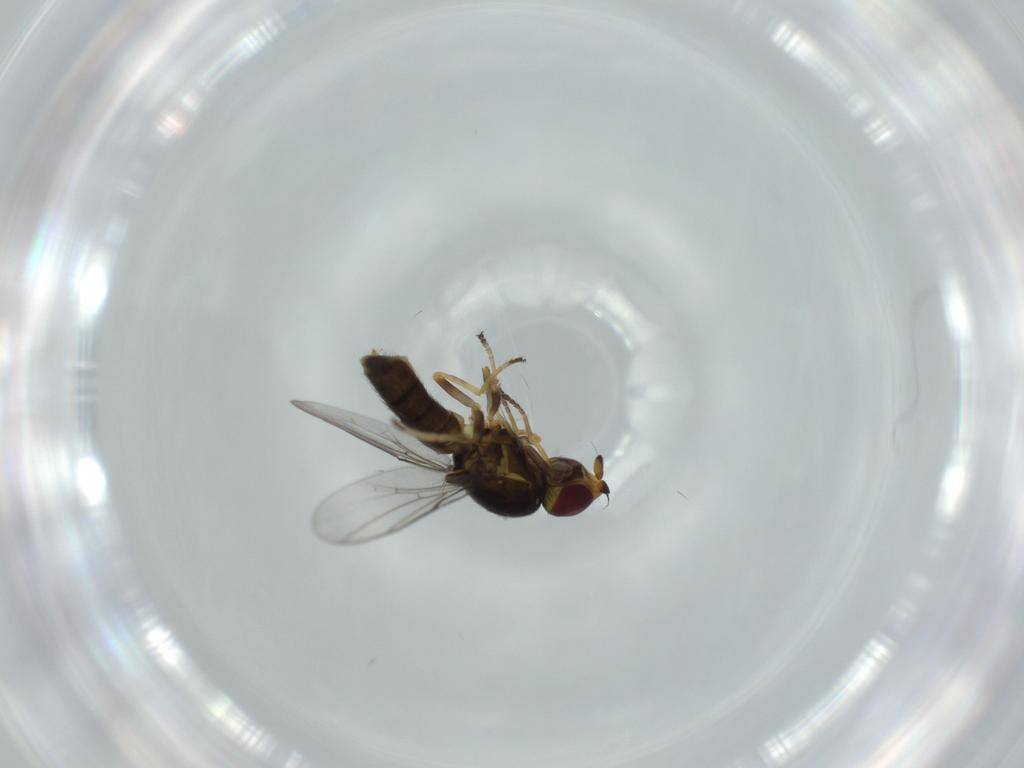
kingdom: Animalia
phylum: Arthropoda
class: Insecta
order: Diptera
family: Chloropidae
